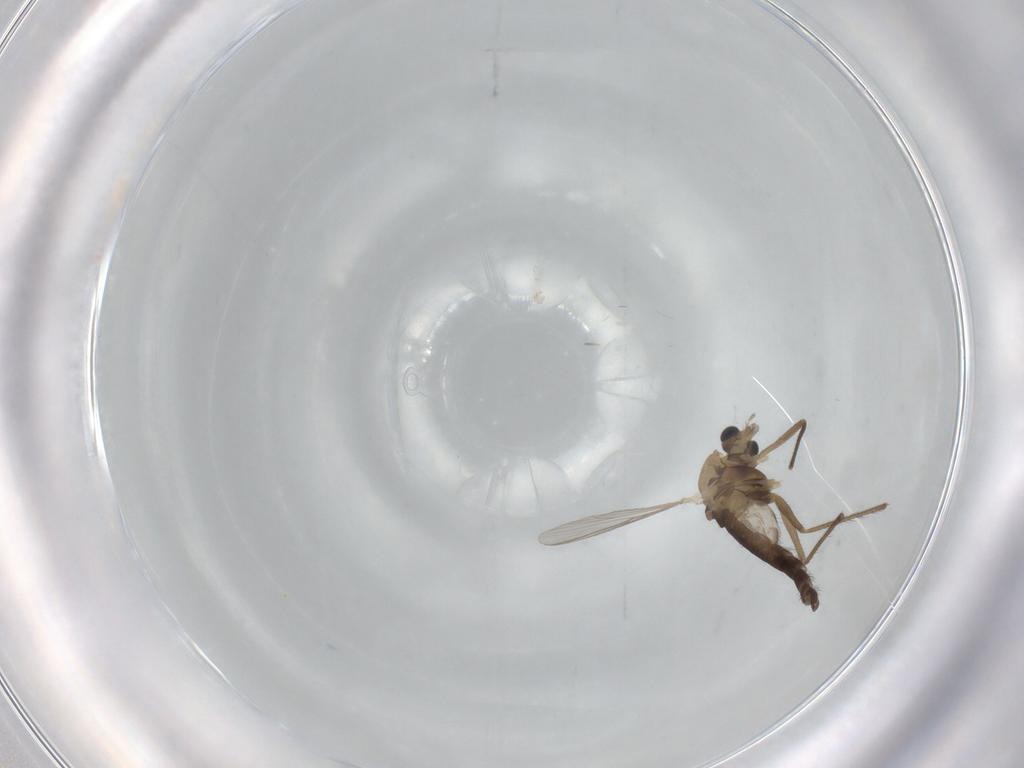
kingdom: Animalia
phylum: Arthropoda
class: Insecta
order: Diptera
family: Chironomidae
